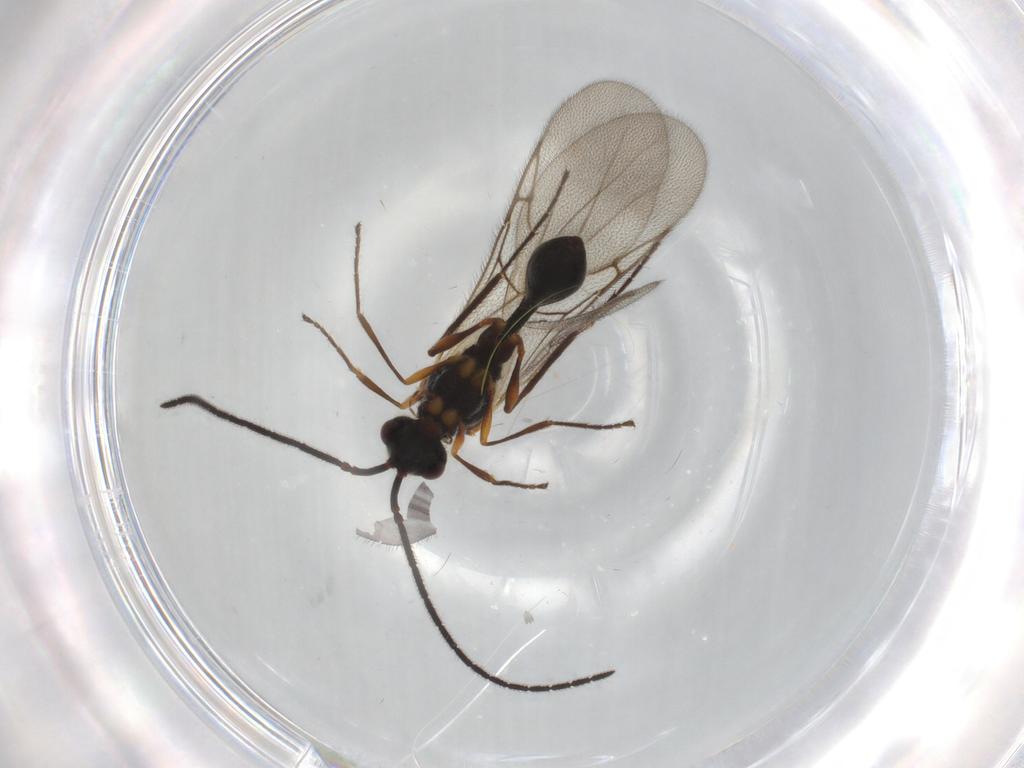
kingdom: Animalia
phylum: Arthropoda
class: Insecta
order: Hymenoptera
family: Diapriidae
